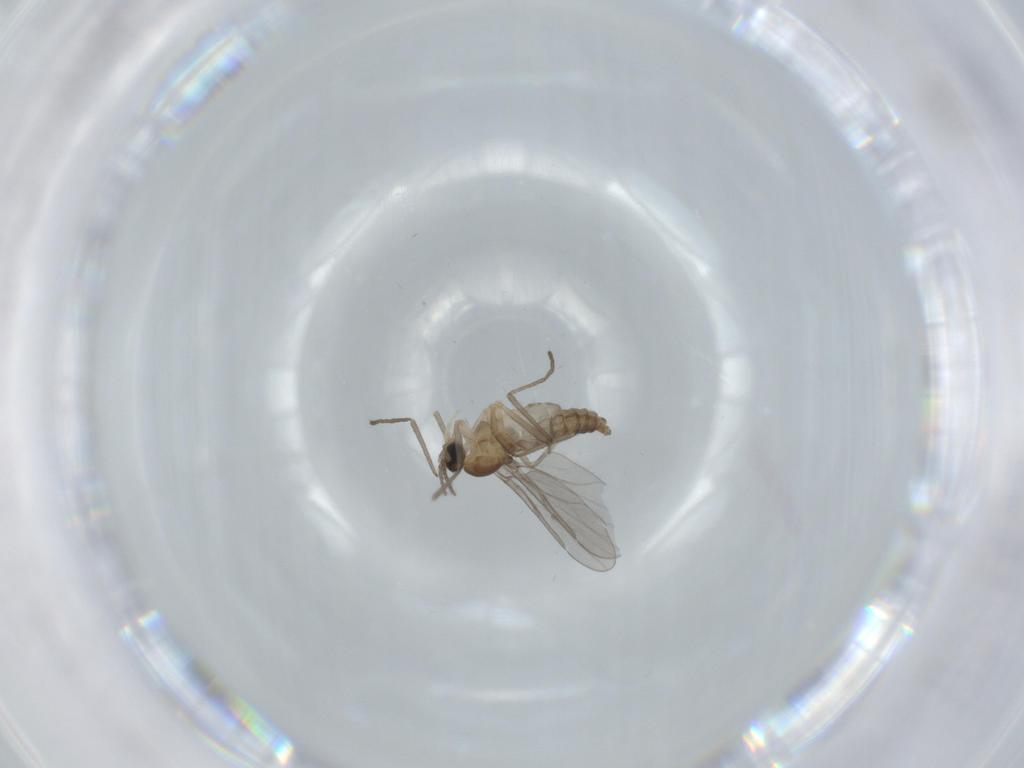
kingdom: Animalia
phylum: Arthropoda
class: Insecta
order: Diptera
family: Cecidomyiidae
